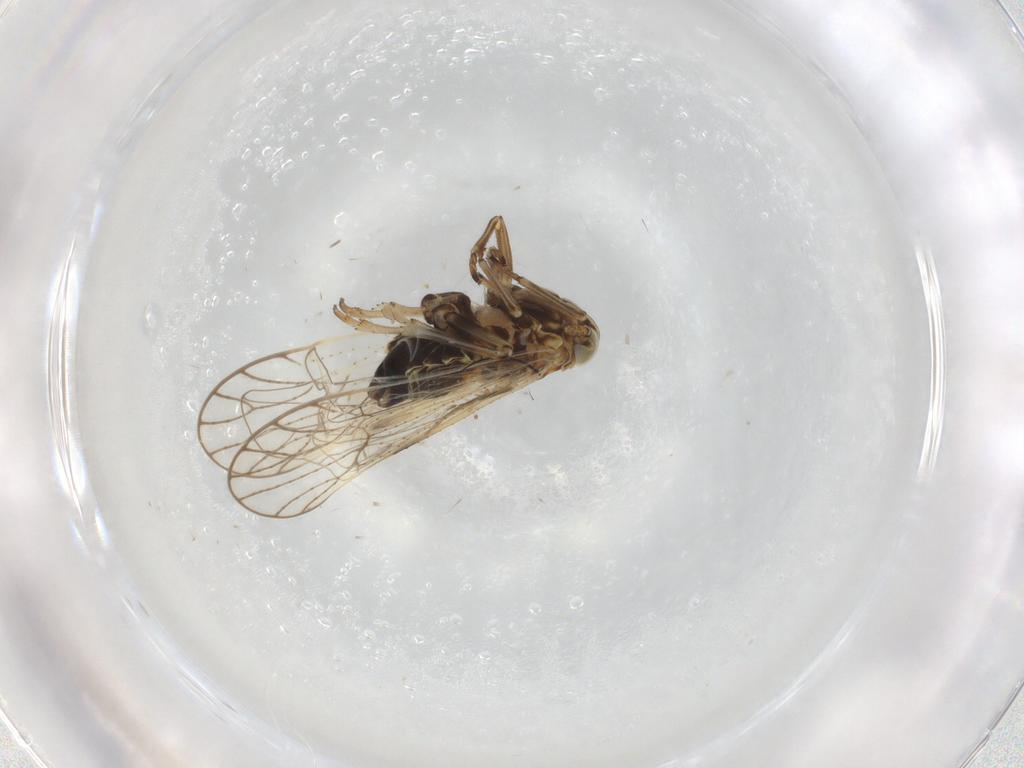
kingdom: Animalia
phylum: Arthropoda
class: Insecta
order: Hemiptera
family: Delphacidae
